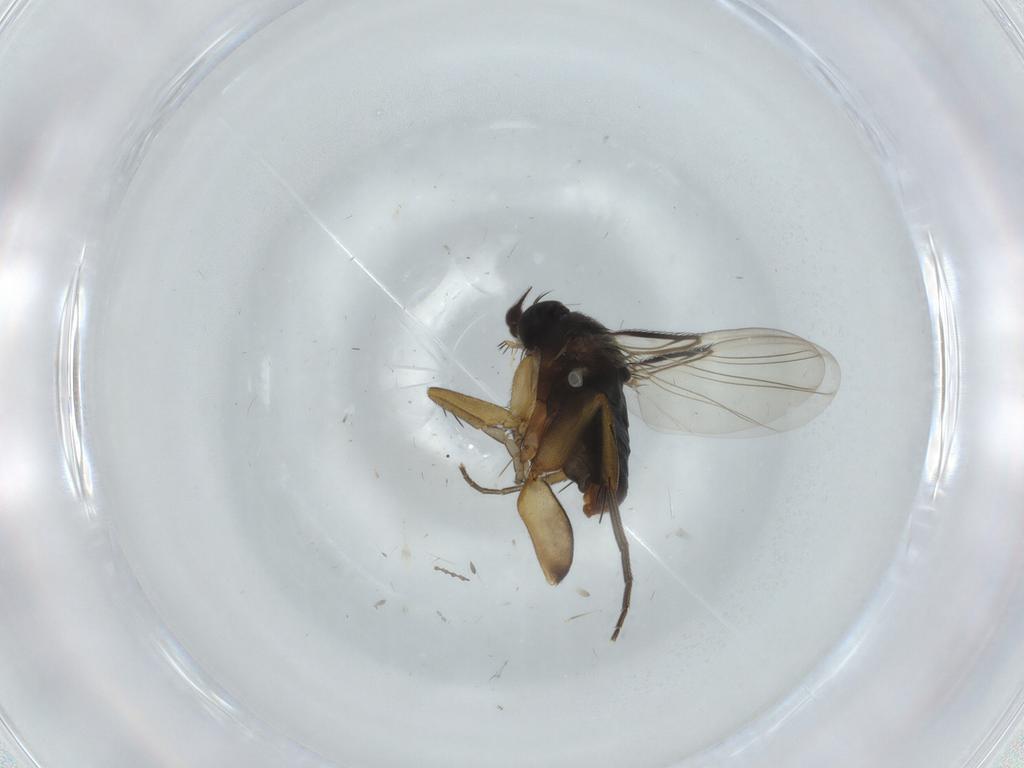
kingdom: Animalia
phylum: Arthropoda
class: Insecta
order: Diptera
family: Phoridae
